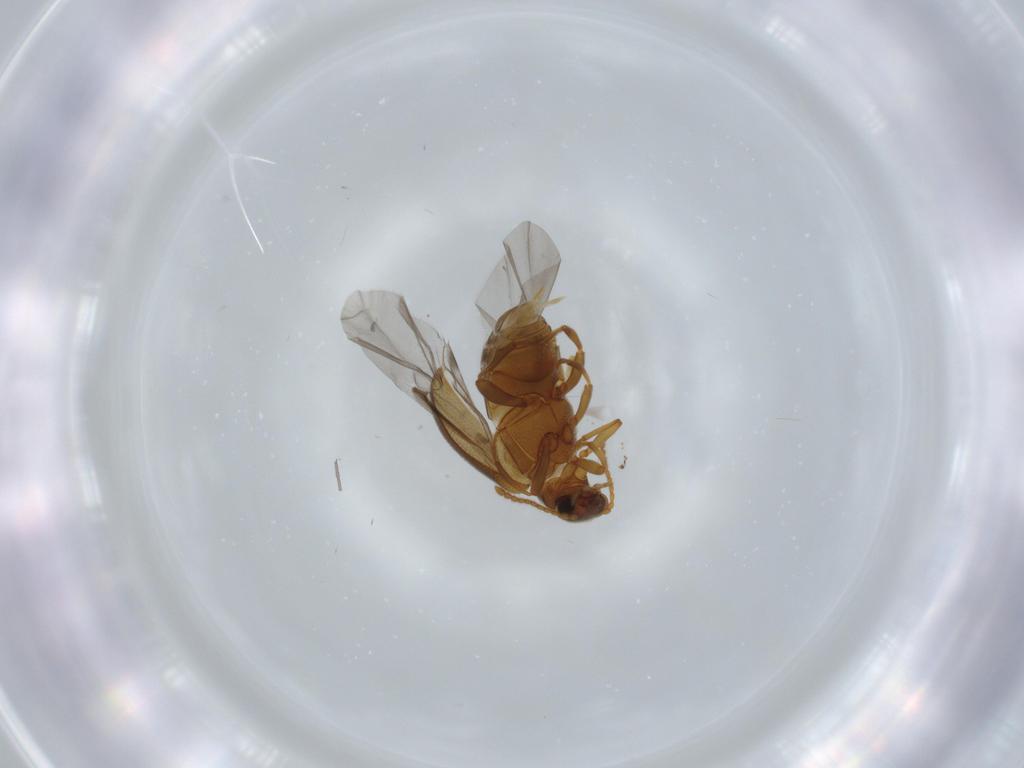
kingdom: Animalia
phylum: Arthropoda
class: Insecta
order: Coleoptera
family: Aderidae
